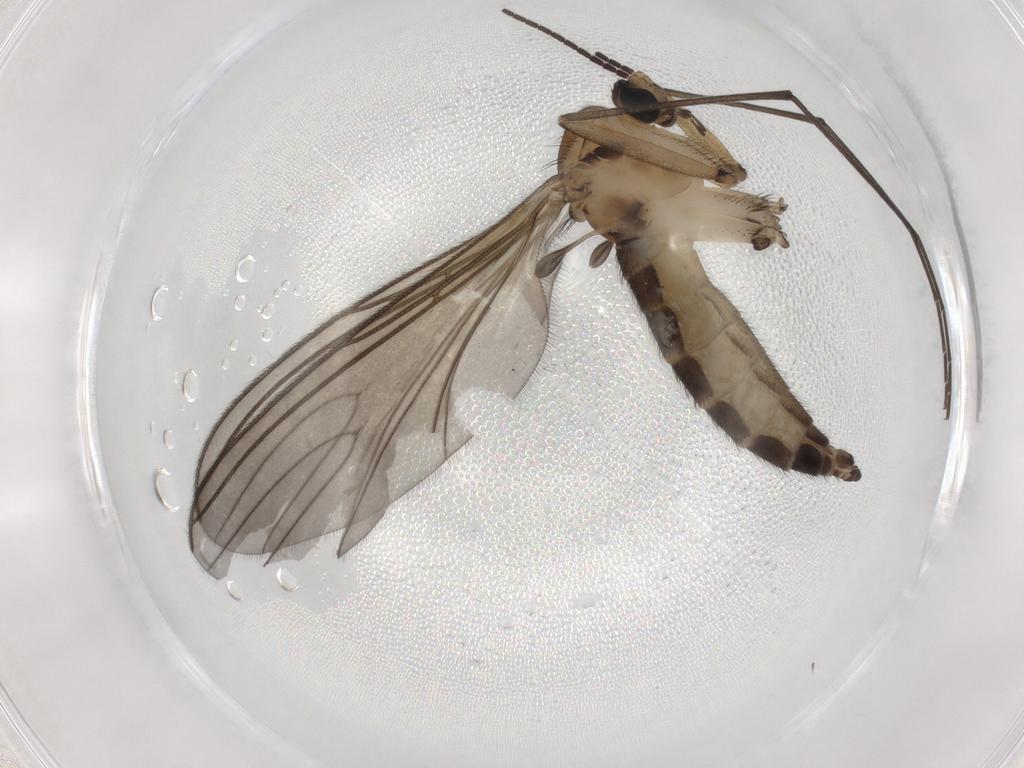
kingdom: Animalia
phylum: Arthropoda
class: Insecta
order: Diptera
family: Sciaridae
